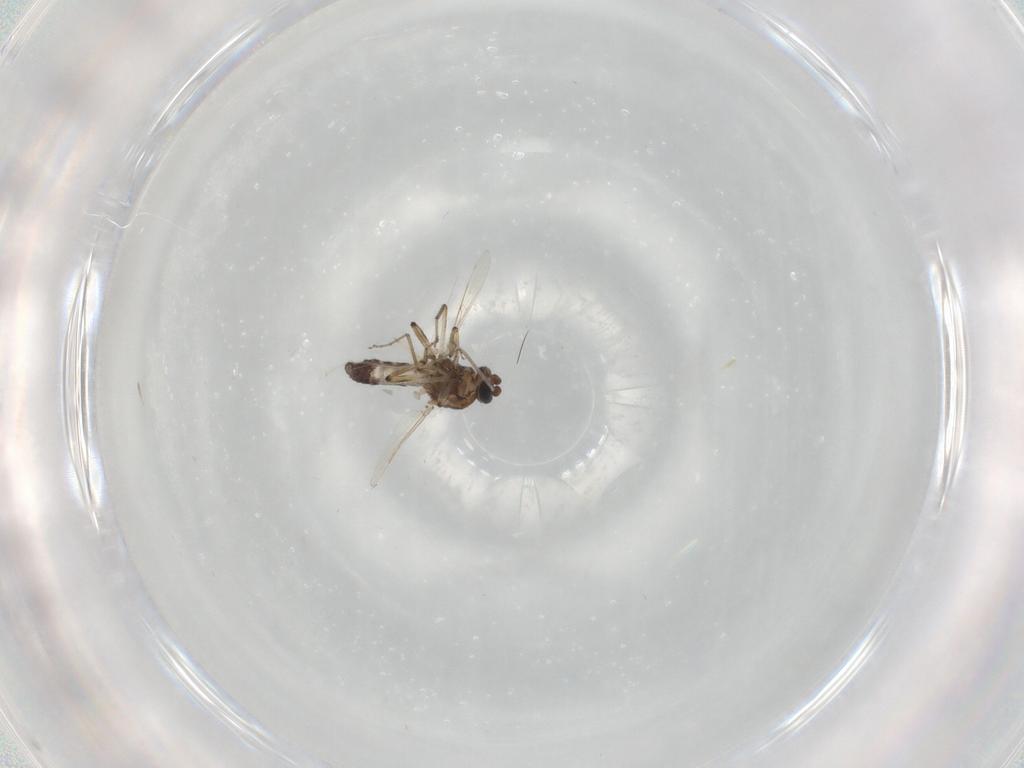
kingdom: Animalia
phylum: Arthropoda
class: Insecta
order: Diptera
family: Ceratopogonidae
